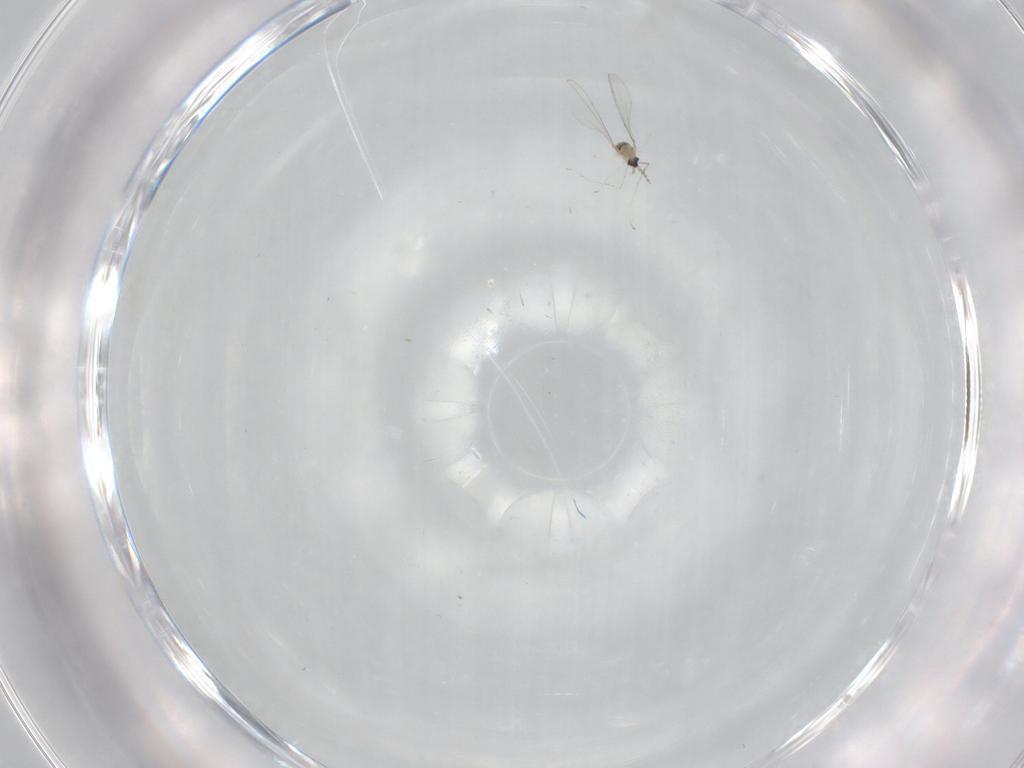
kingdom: Animalia
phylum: Arthropoda
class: Insecta
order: Diptera
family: Cecidomyiidae
